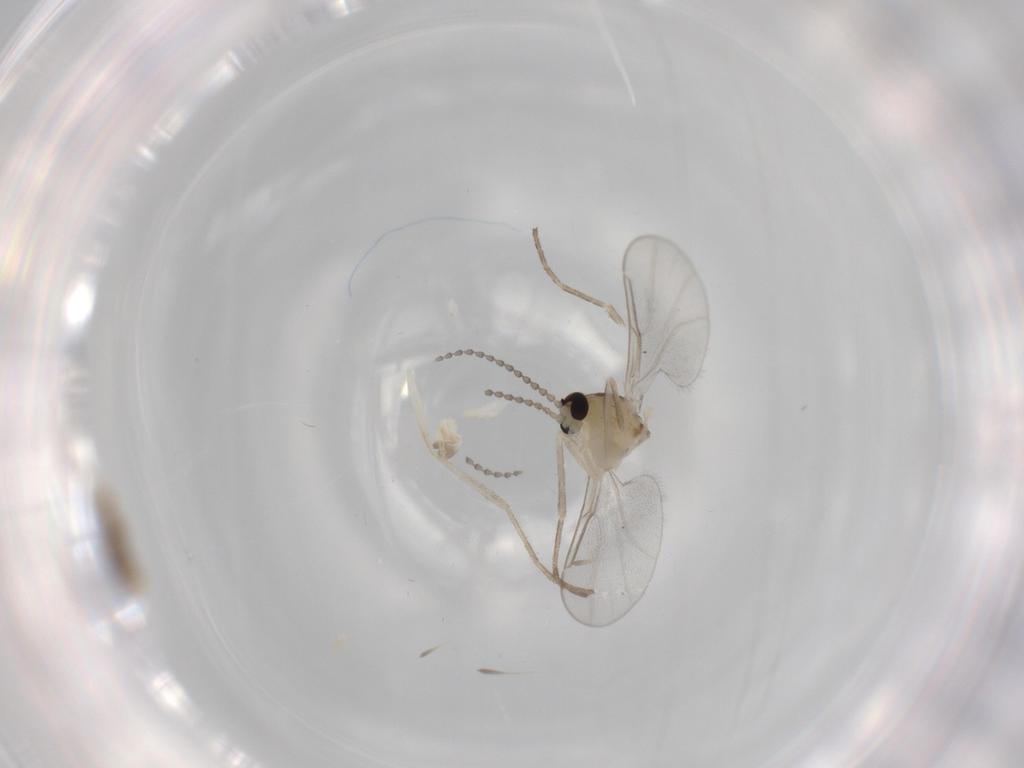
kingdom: Animalia
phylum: Arthropoda
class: Insecta
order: Diptera
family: Cecidomyiidae
